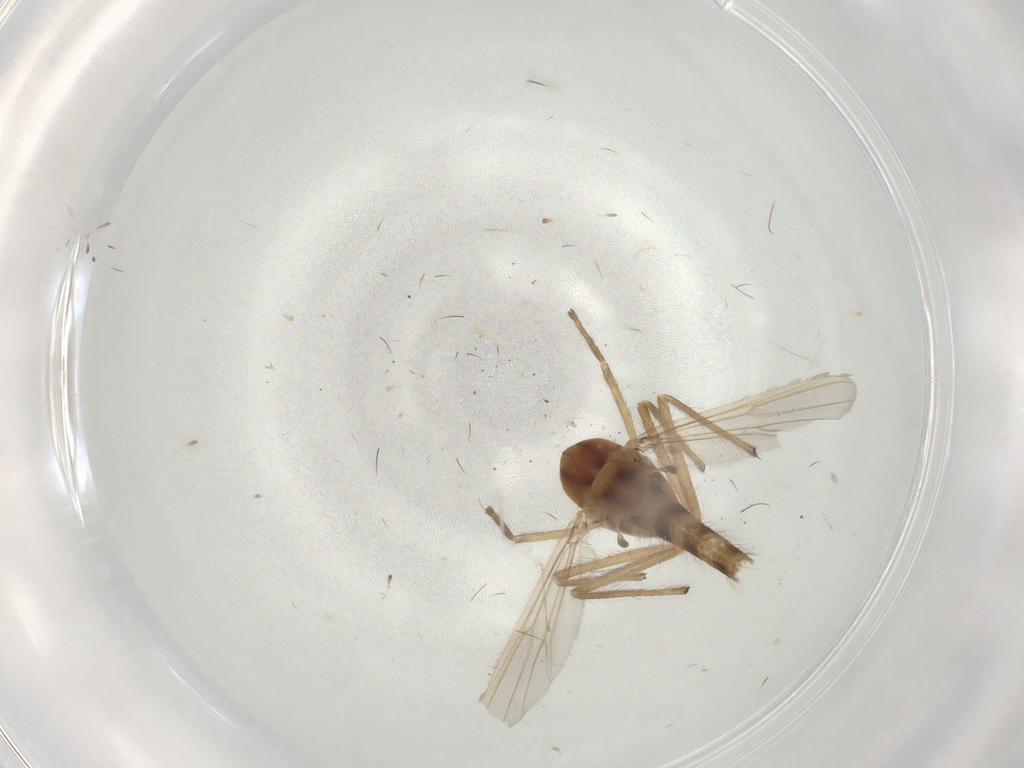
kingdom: Animalia
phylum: Arthropoda
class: Insecta
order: Diptera
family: Chironomidae
